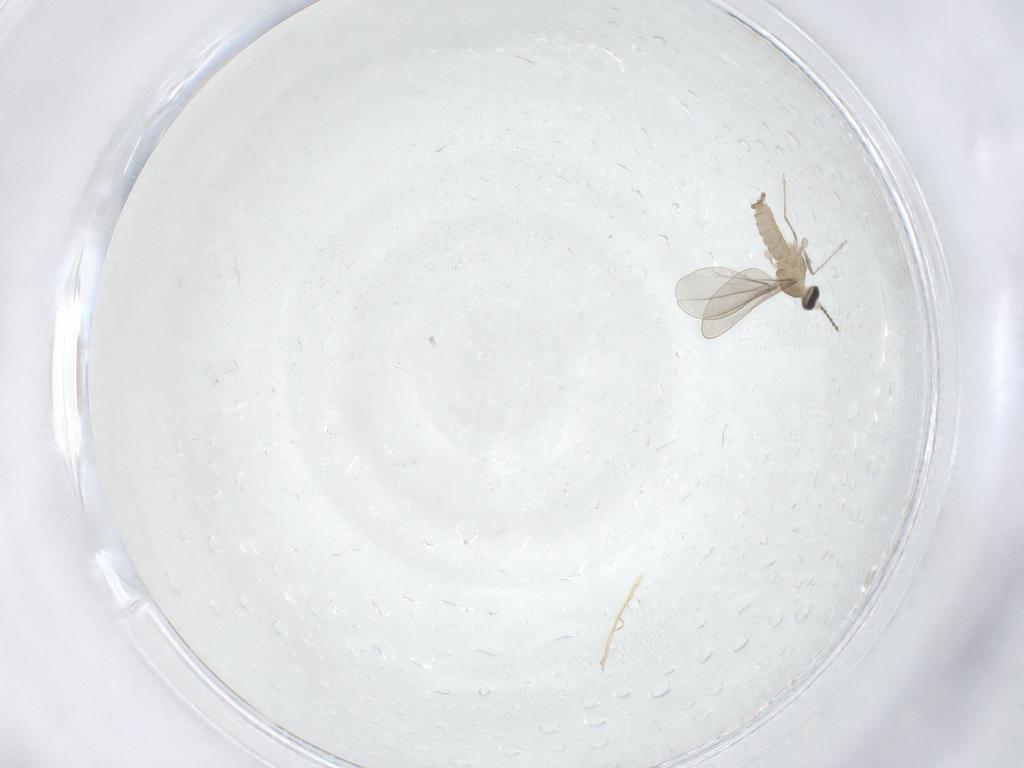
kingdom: Animalia
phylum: Arthropoda
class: Insecta
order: Diptera
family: Cecidomyiidae
